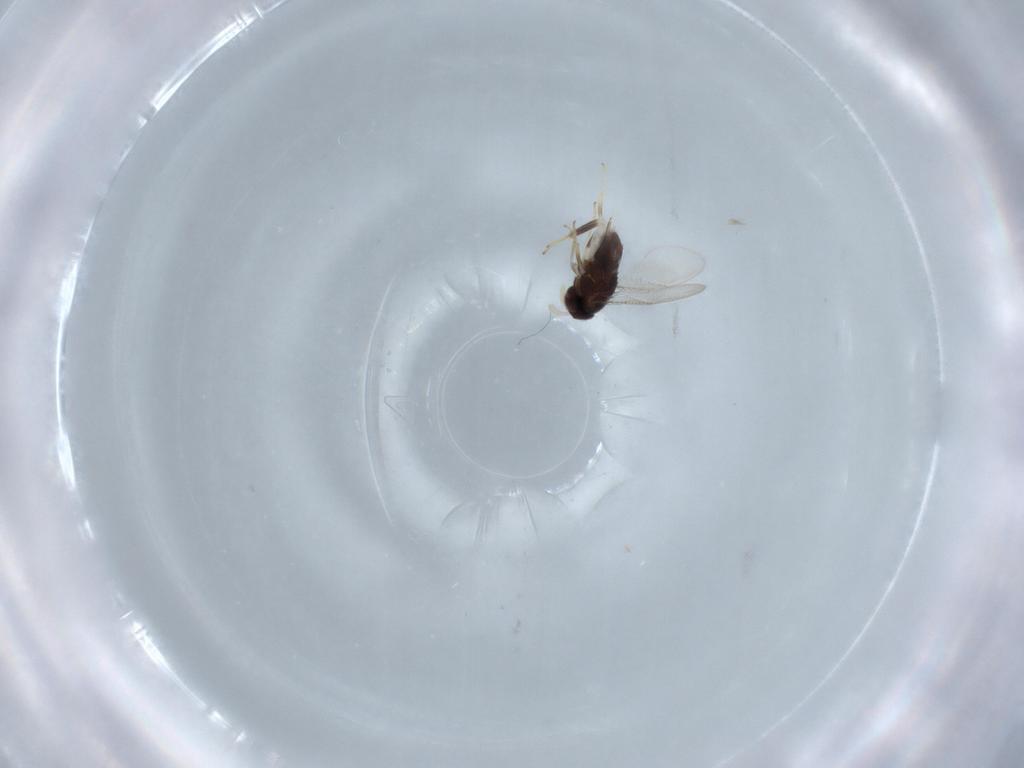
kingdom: Animalia
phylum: Arthropoda
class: Insecta
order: Hymenoptera
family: Aphelinidae
